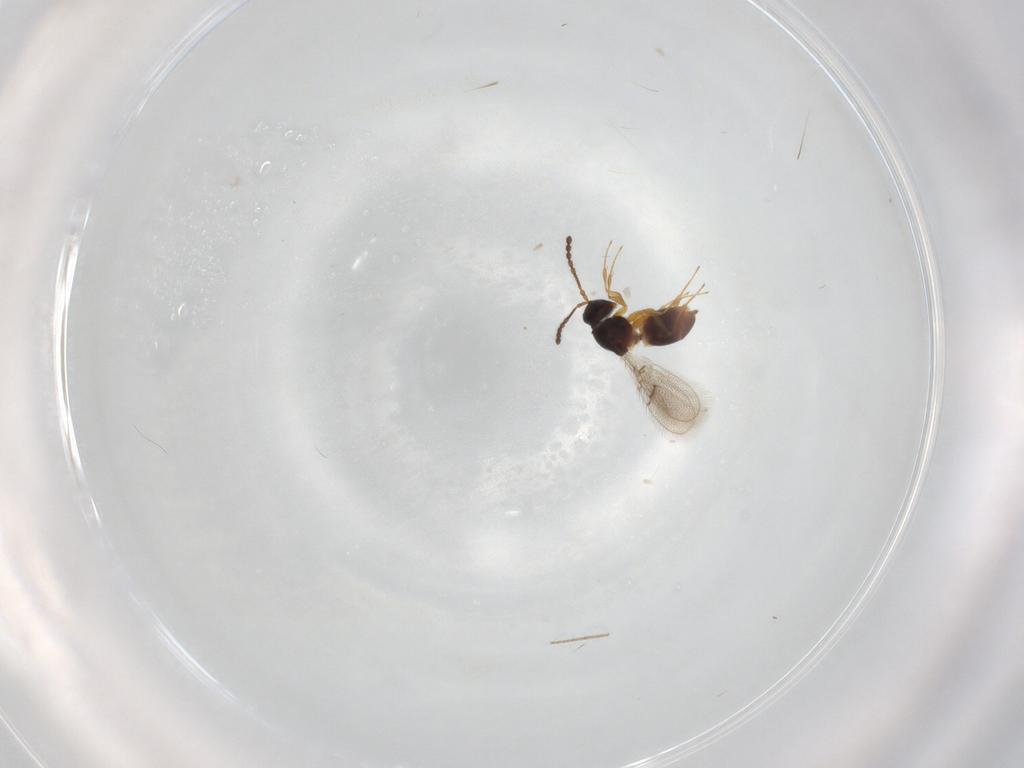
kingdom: Animalia
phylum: Arthropoda
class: Insecta
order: Hymenoptera
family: Figitidae
